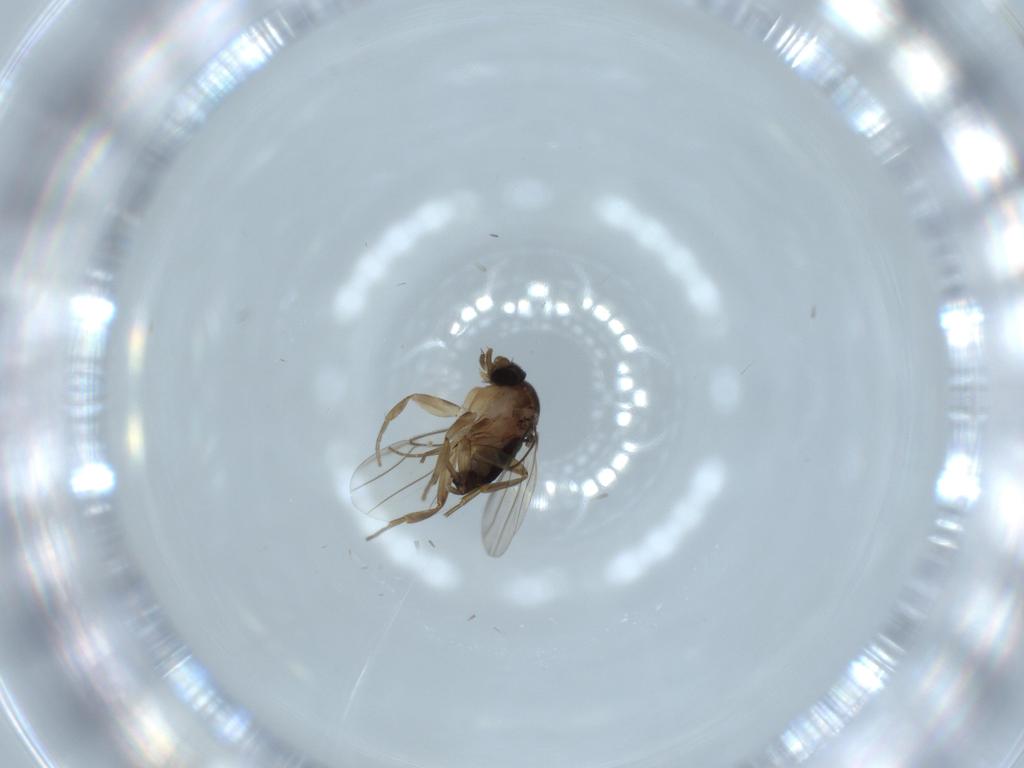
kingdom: Animalia
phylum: Arthropoda
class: Insecta
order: Diptera
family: Phoridae
